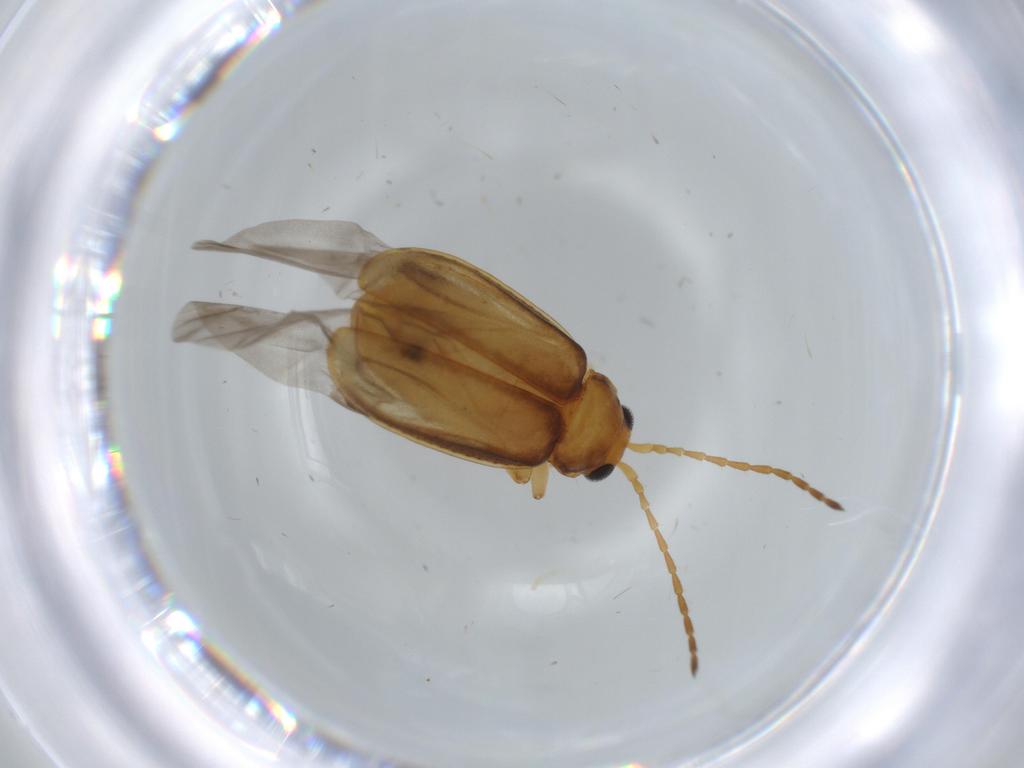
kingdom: Animalia
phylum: Arthropoda
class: Insecta
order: Coleoptera
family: Chrysomelidae
